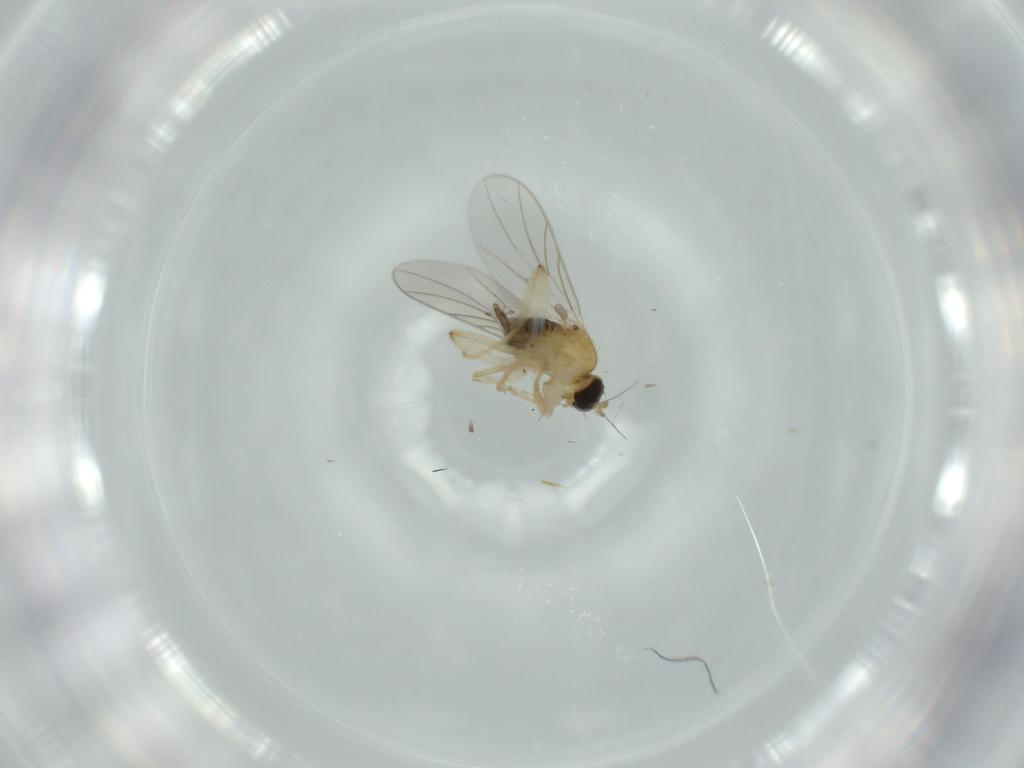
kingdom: Animalia
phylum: Arthropoda
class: Insecta
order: Diptera
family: Hybotidae
